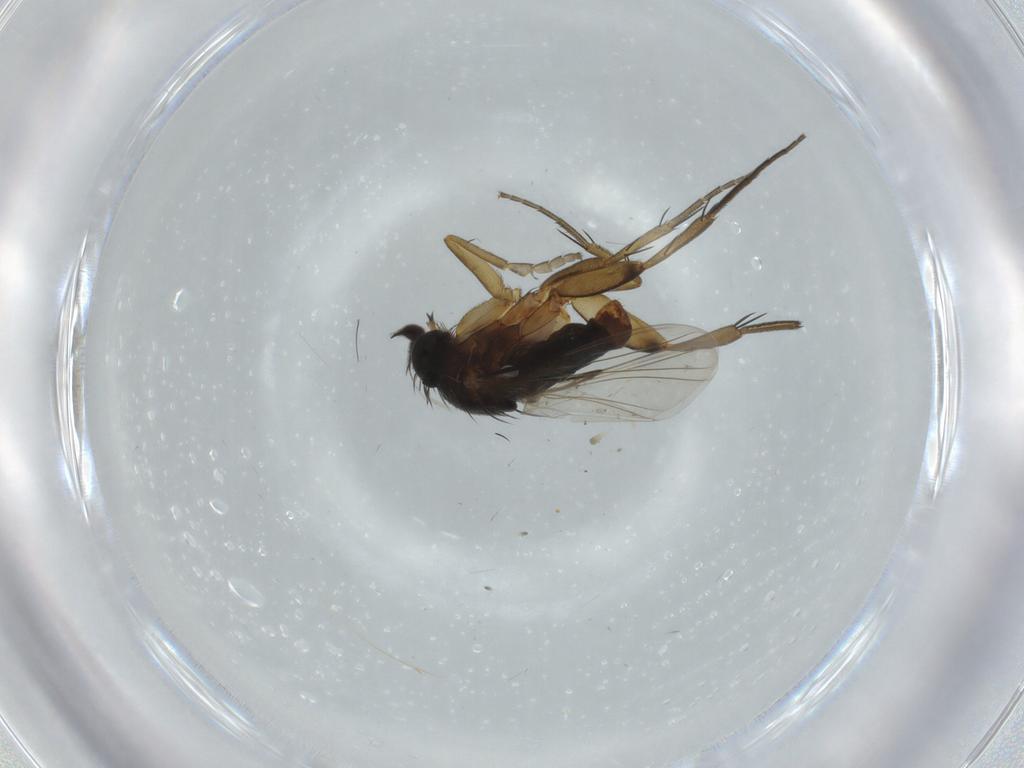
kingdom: Animalia
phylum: Arthropoda
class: Insecta
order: Diptera
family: Phoridae
